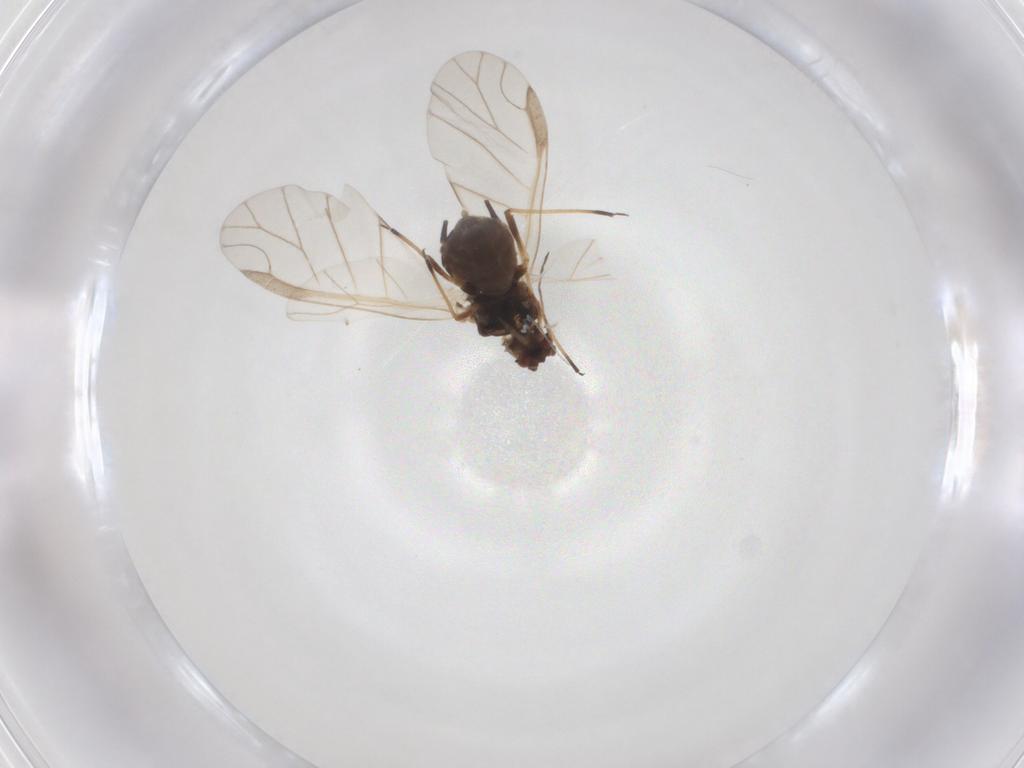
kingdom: Animalia
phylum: Arthropoda
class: Insecta
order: Hemiptera
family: Aphididae
